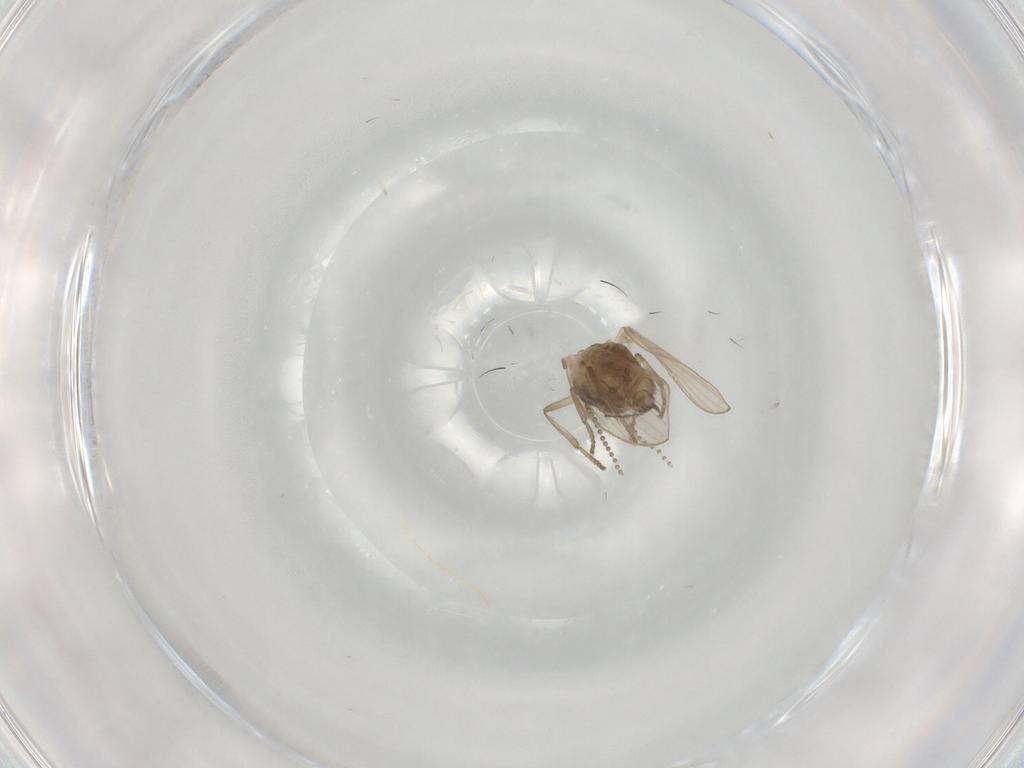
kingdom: Animalia
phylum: Arthropoda
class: Insecta
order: Diptera
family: Psychodidae
